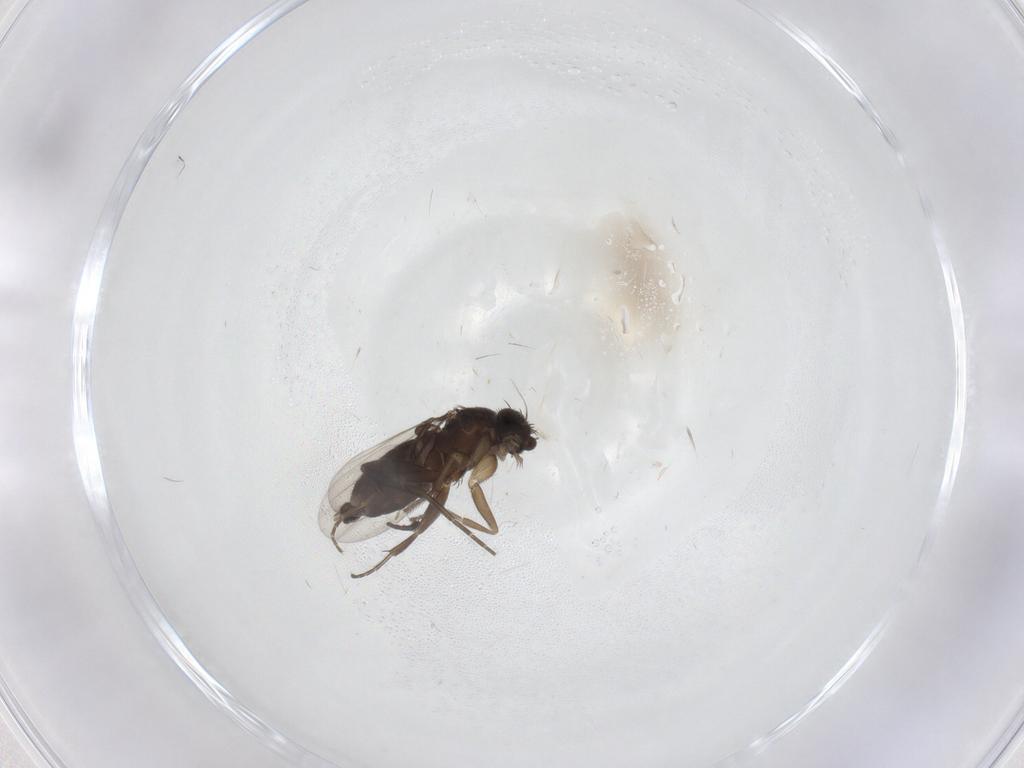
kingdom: Animalia
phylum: Arthropoda
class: Insecta
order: Diptera
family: Phoridae
